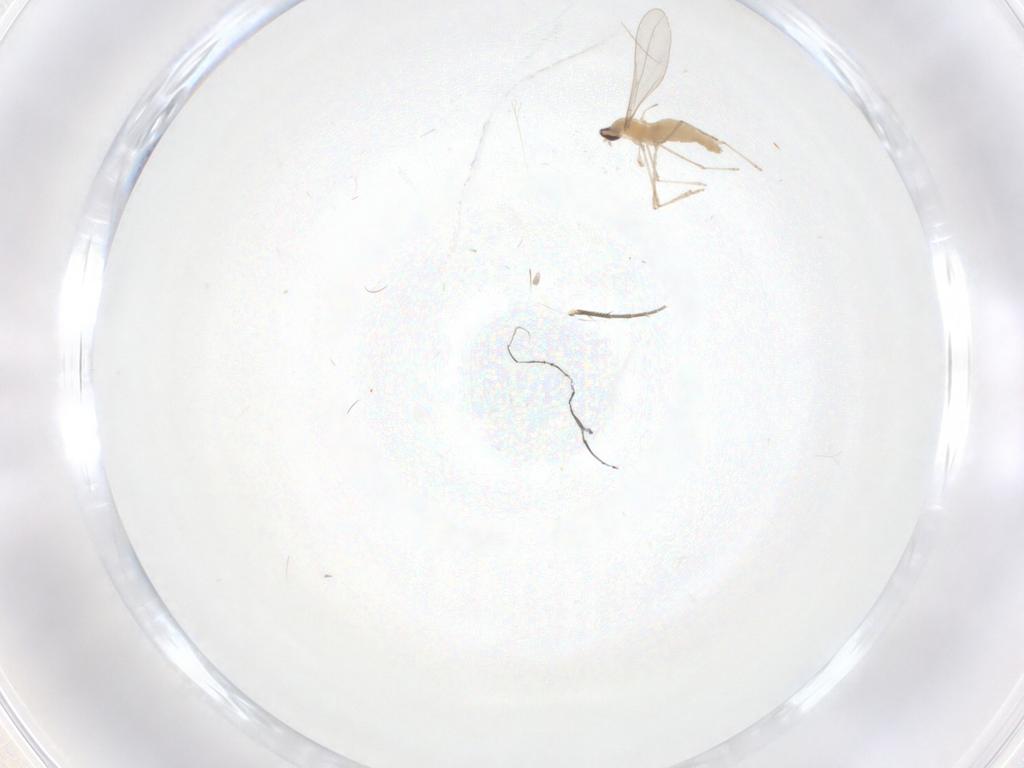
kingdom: Animalia
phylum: Arthropoda
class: Insecta
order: Diptera
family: Cecidomyiidae
